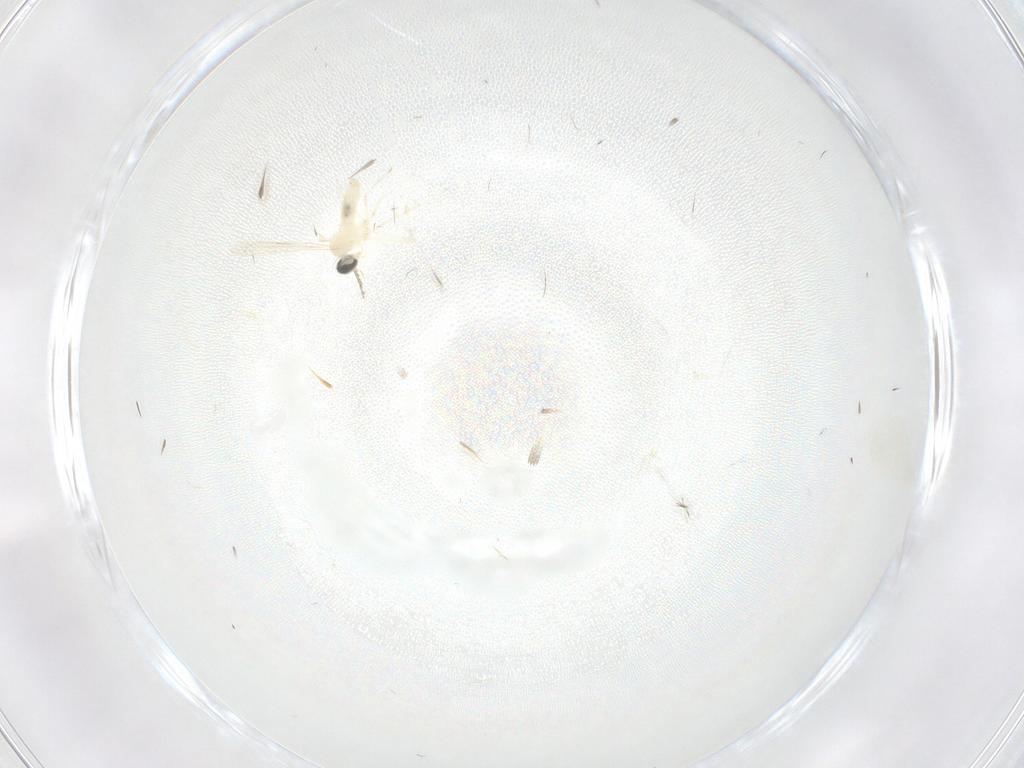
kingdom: Animalia
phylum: Arthropoda
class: Insecta
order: Diptera
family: Cecidomyiidae
